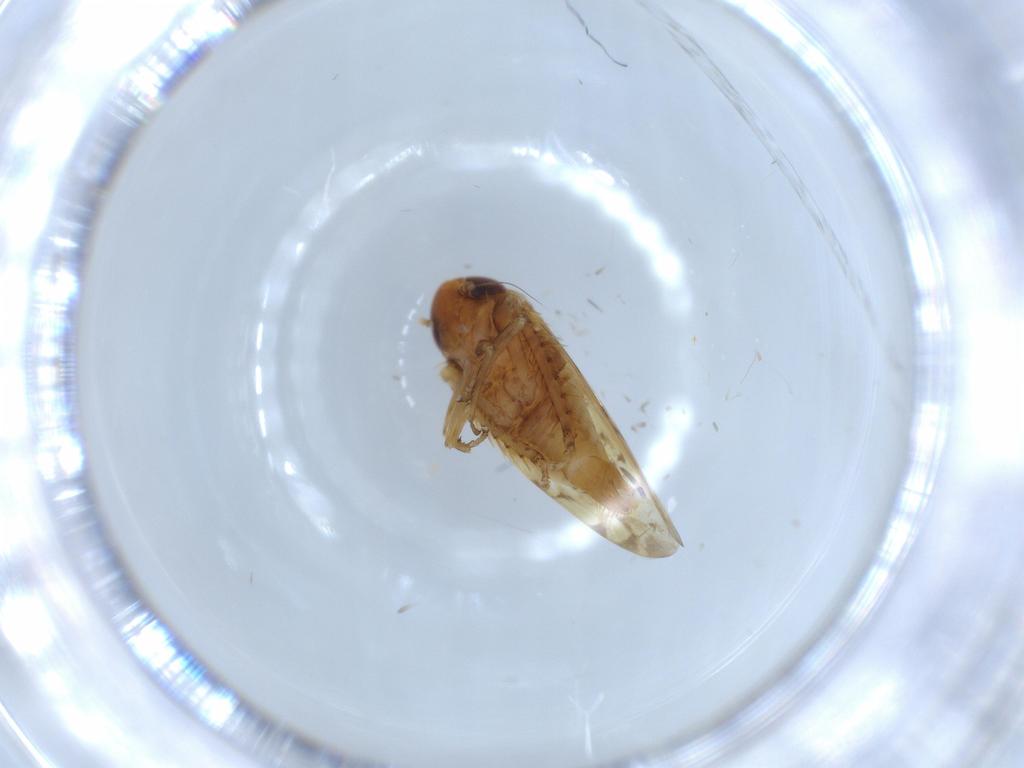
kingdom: Animalia
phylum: Arthropoda
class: Insecta
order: Hemiptera
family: Cicadellidae
